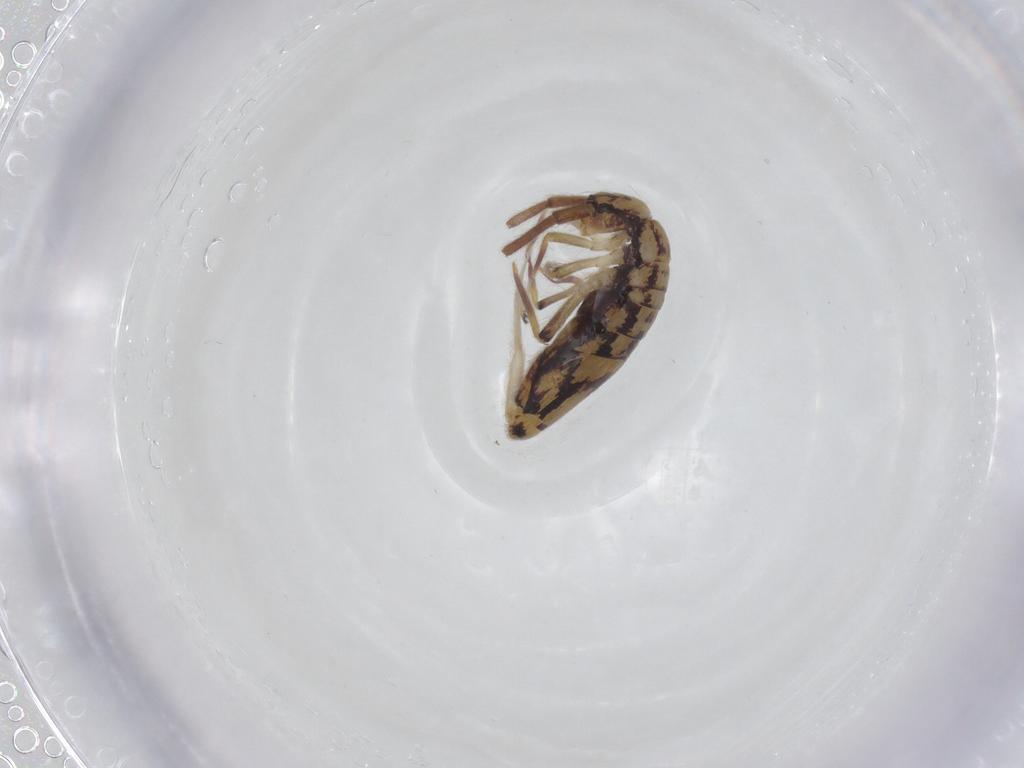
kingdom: Animalia
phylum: Arthropoda
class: Collembola
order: Entomobryomorpha
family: Entomobryidae
